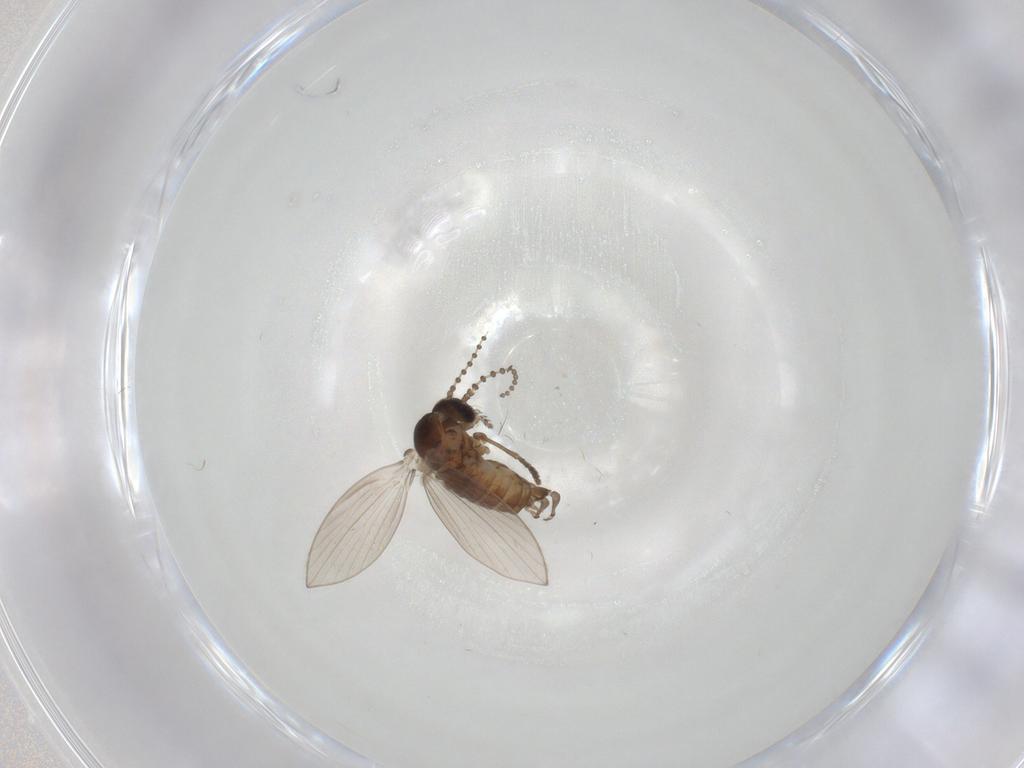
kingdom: Animalia
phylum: Arthropoda
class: Insecta
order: Diptera
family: Psychodidae
